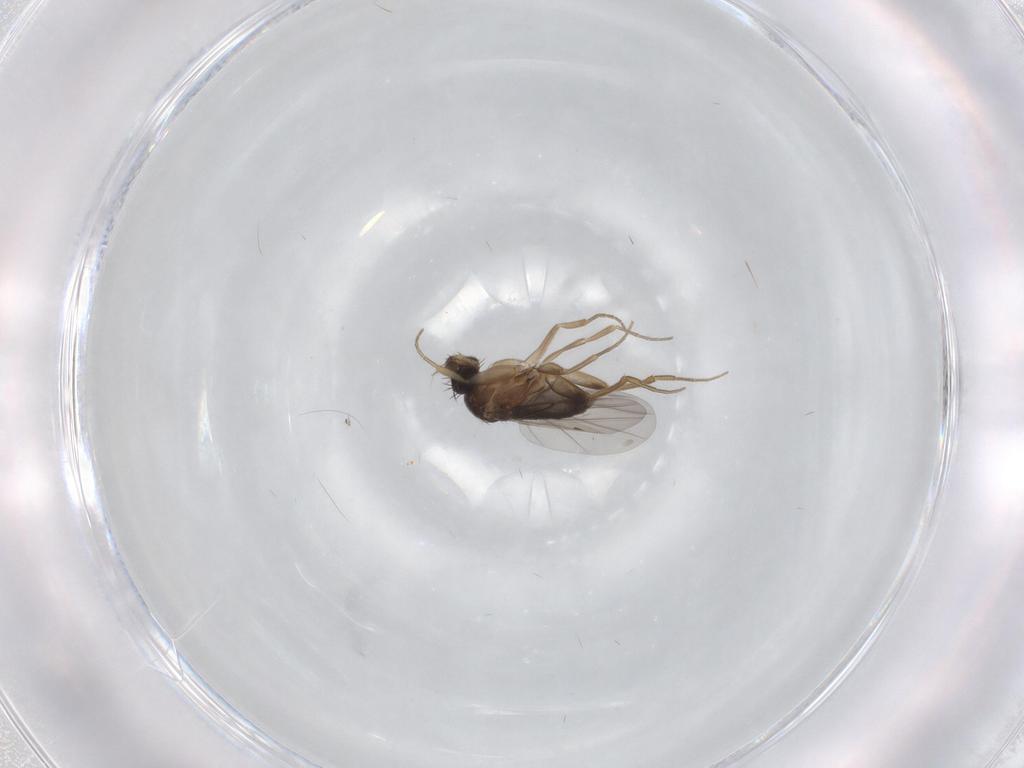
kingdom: Animalia
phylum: Arthropoda
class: Insecta
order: Diptera
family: Phoridae
